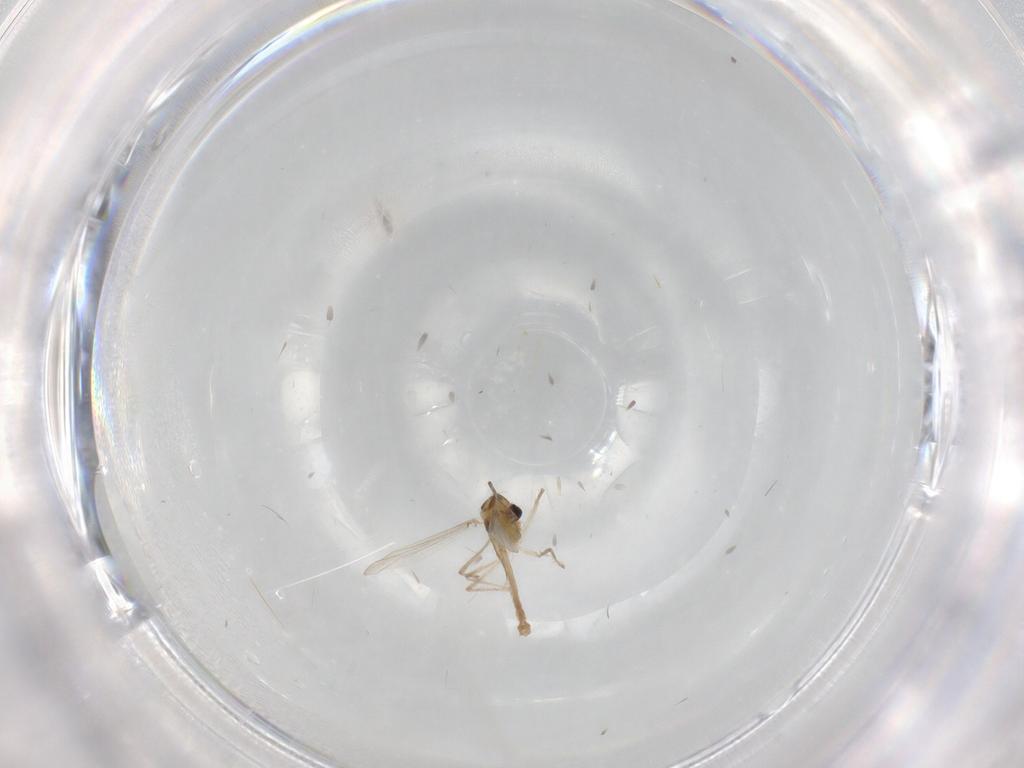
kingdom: Animalia
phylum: Arthropoda
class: Insecta
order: Diptera
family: Chironomidae
